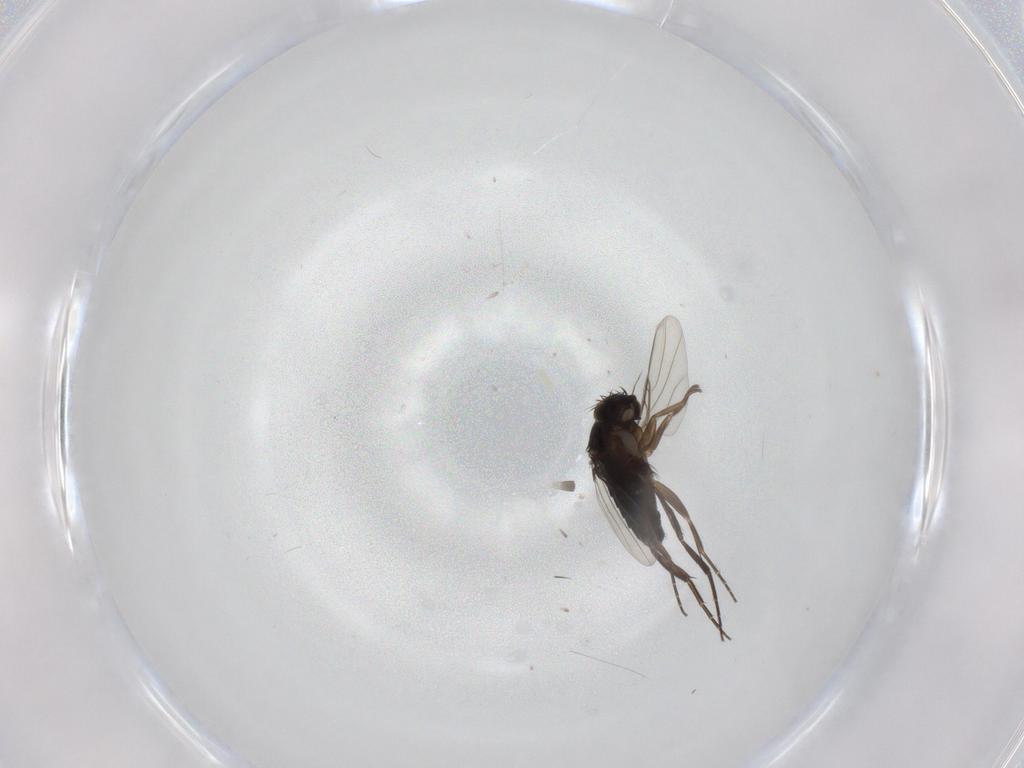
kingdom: Animalia
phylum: Arthropoda
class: Insecta
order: Diptera
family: Phoridae
